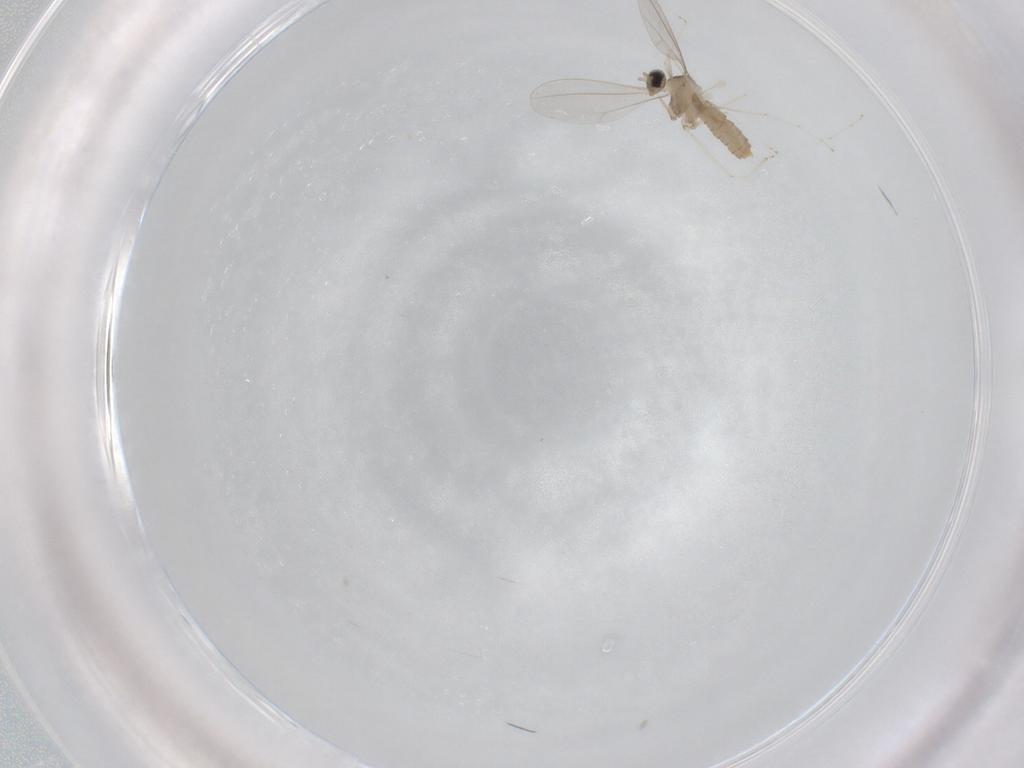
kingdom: Animalia
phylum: Arthropoda
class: Insecta
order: Diptera
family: Cecidomyiidae
